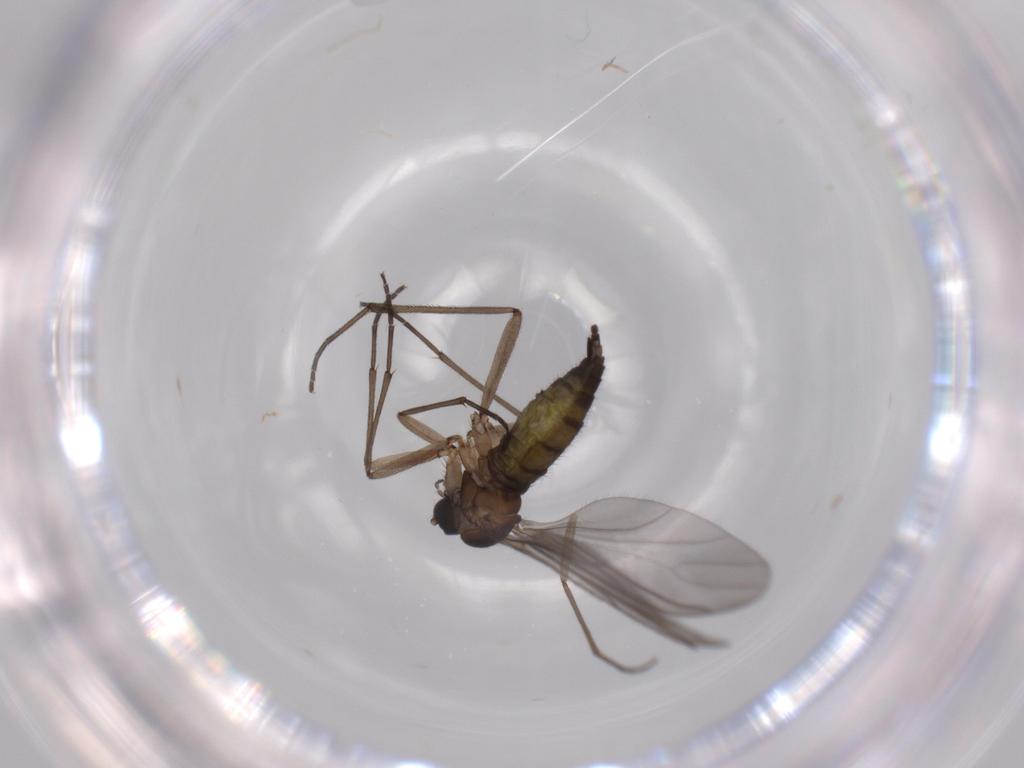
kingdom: Animalia
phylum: Arthropoda
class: Insecta
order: Diptera
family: Sciaridae
